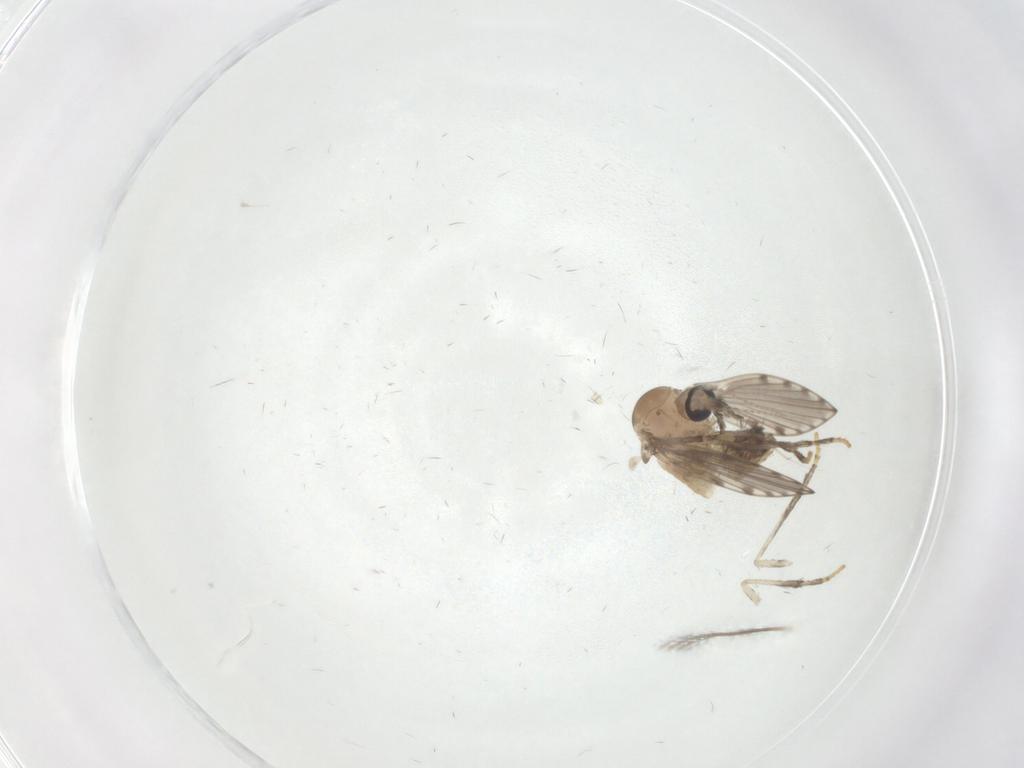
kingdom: Animalia
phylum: Arthropoda
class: Insecta
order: Diptera
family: Psychodidae
